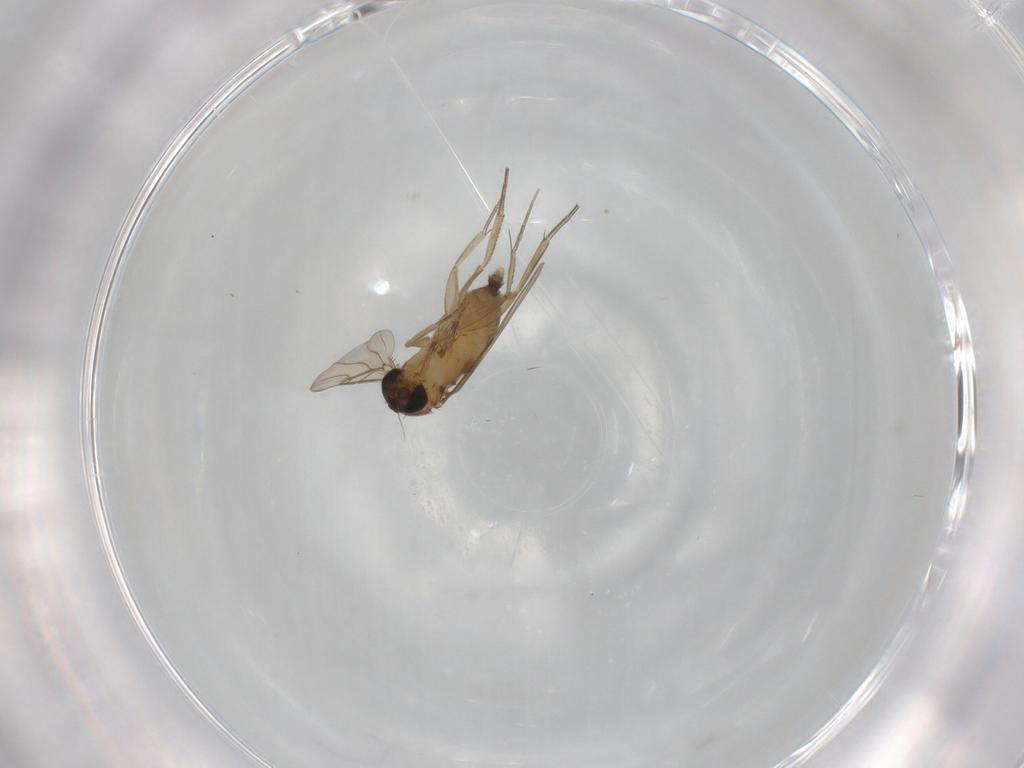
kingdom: Animalia
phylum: Arthropoda
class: Insecta
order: Diptera
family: Phoridae
